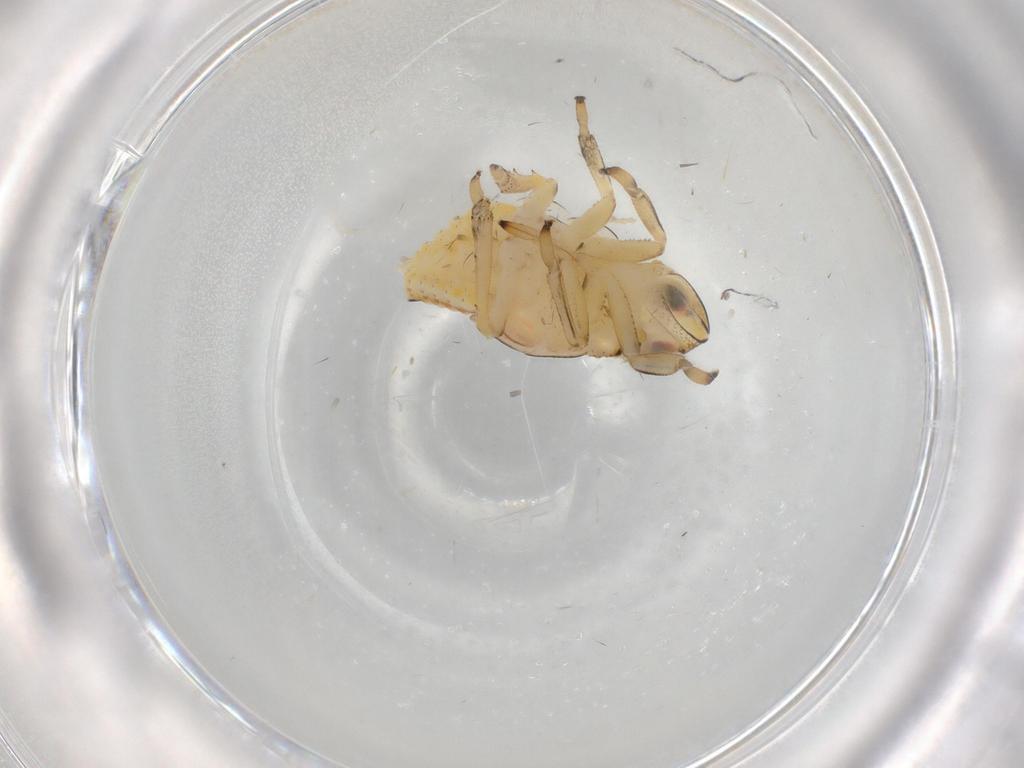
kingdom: Animalia
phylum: Arthropoda
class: Insecta
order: Hemiptera
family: Issidae
